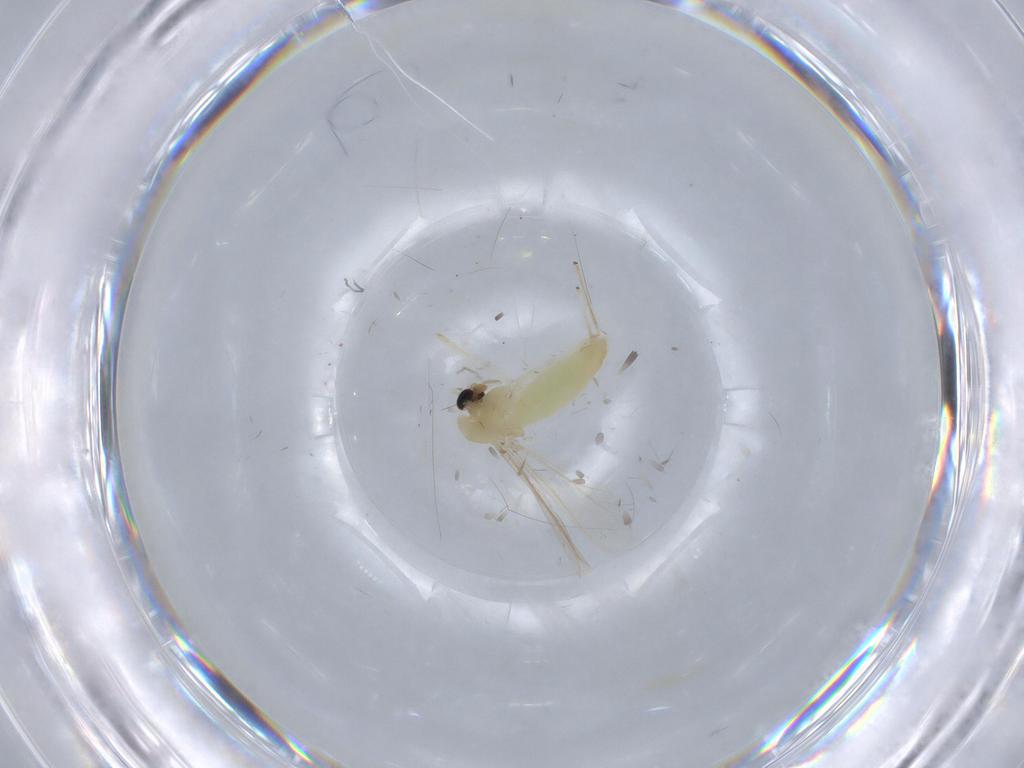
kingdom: Animalia
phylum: Arthropoda
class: Insecta
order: Diptera
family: Chironomidae
